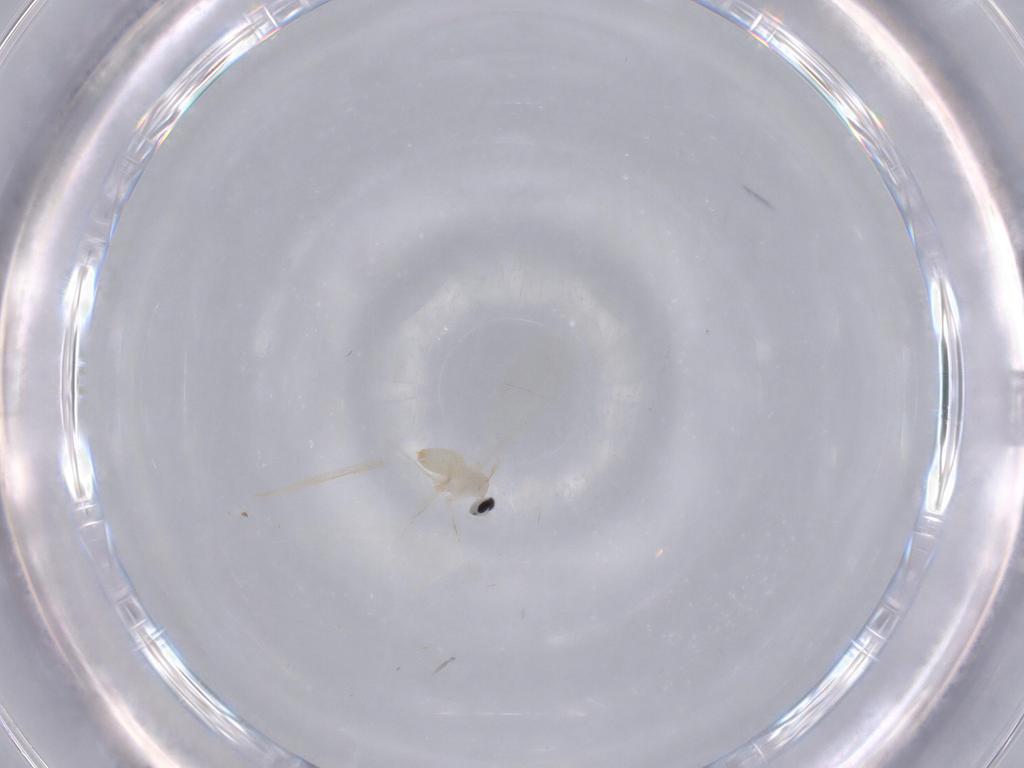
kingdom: Animalia
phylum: Arthropoda
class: Insecta
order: Diptera
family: Cecidomyiidae
